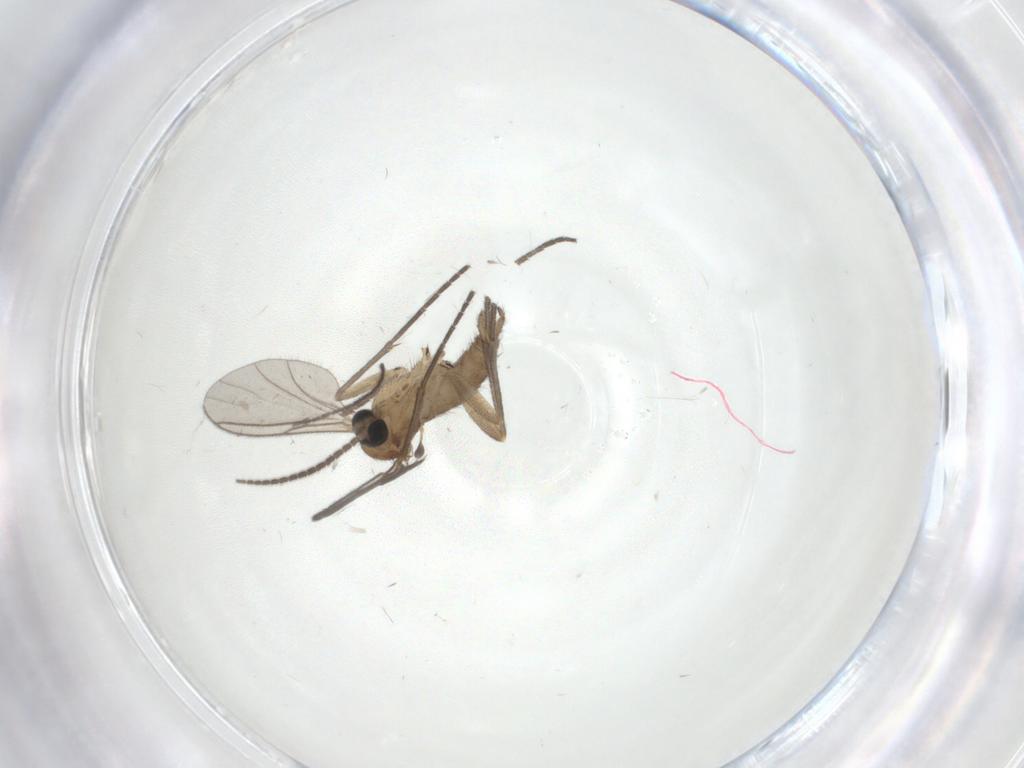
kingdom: Animalia
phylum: Arthropoda
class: Insecta
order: Diptera
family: Sciaridae
